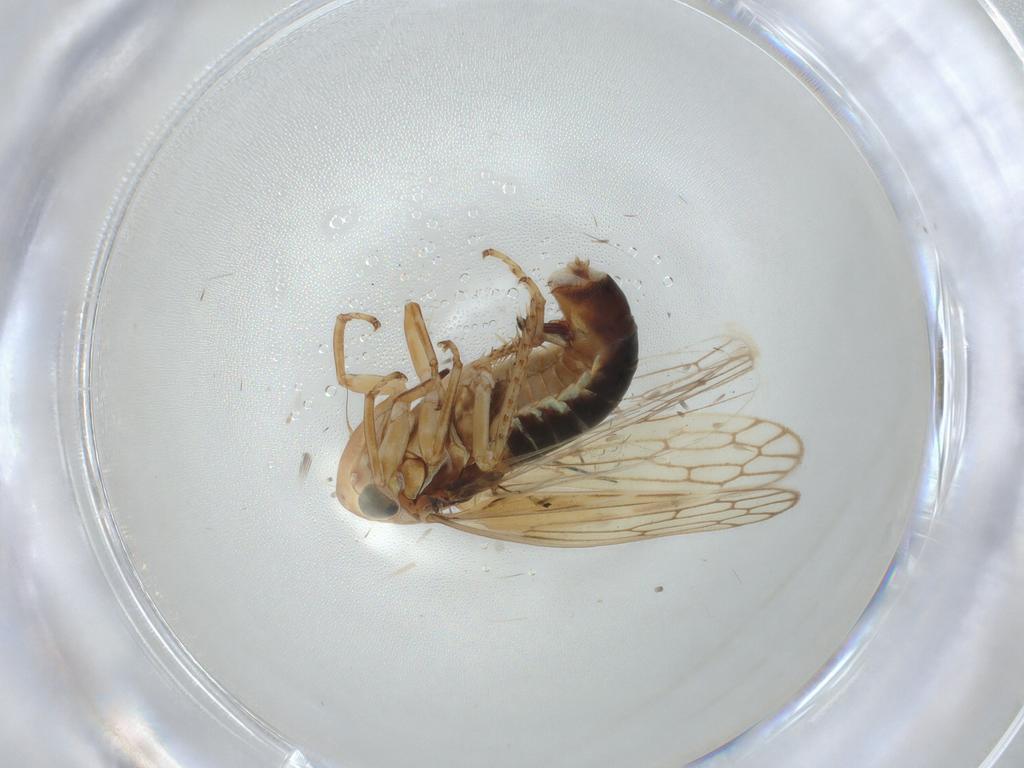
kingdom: Animalia
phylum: Arthropoda
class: Insecta
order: Hemiptera
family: Cicadellidae
